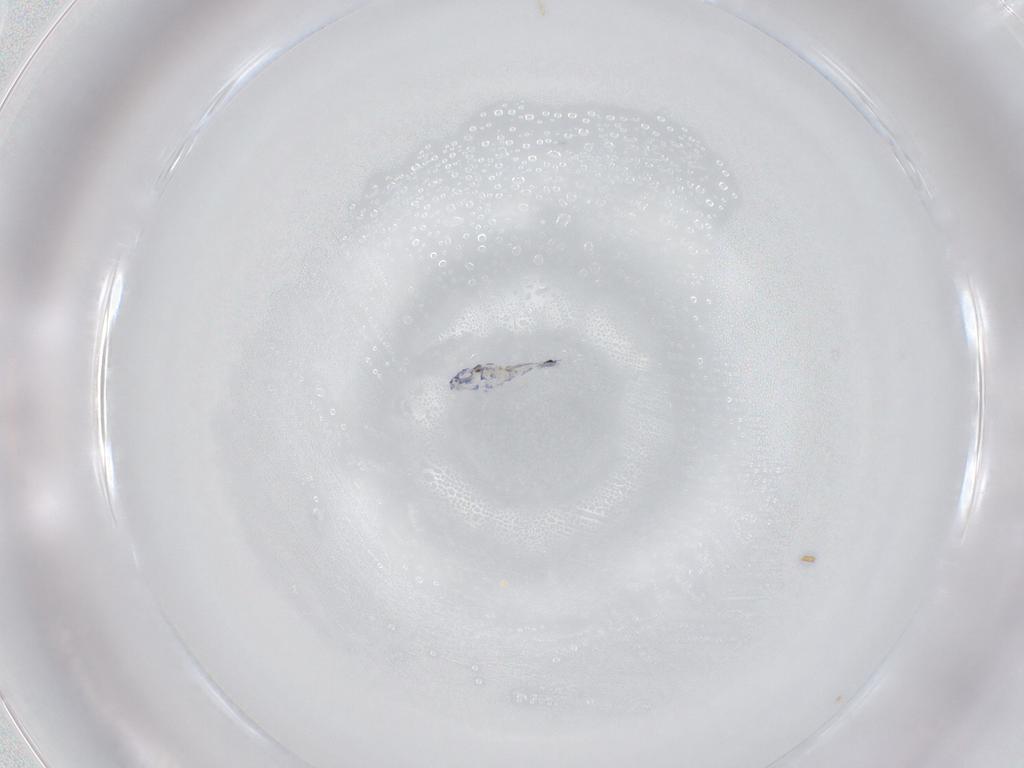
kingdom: Animalia
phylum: Arthropoda
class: Collembola
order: Entomobryomorpha
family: Entomobryidae
